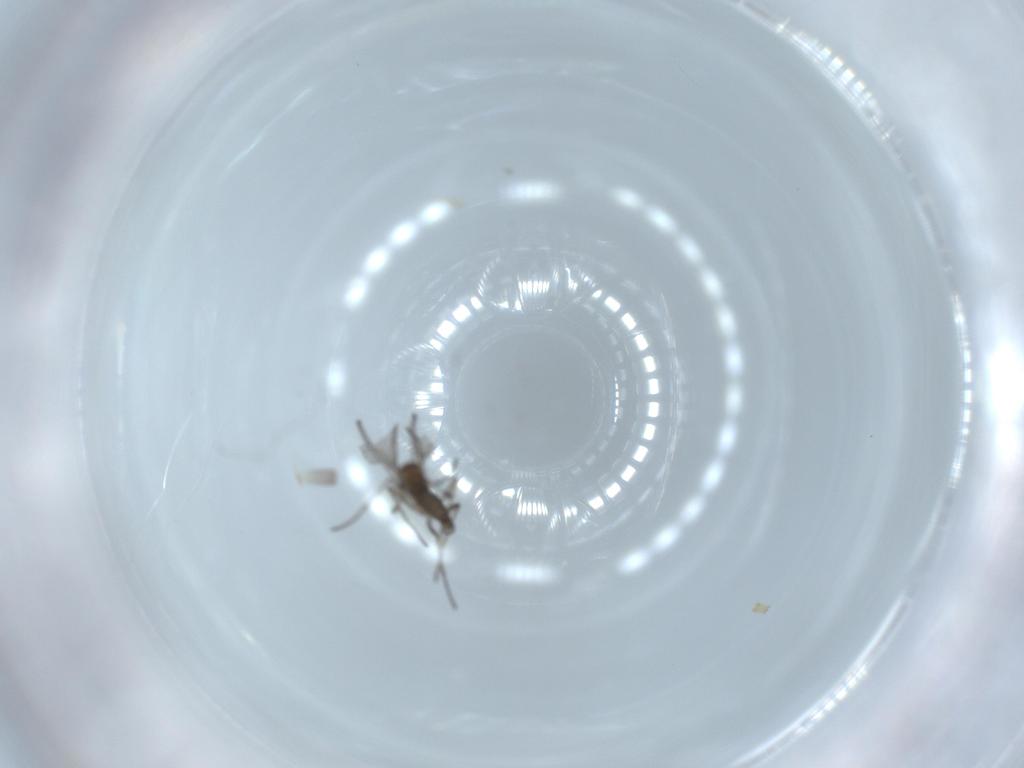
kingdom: Animalia
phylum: Arthropoda
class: Insecta
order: Diptera
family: Sciaridae
